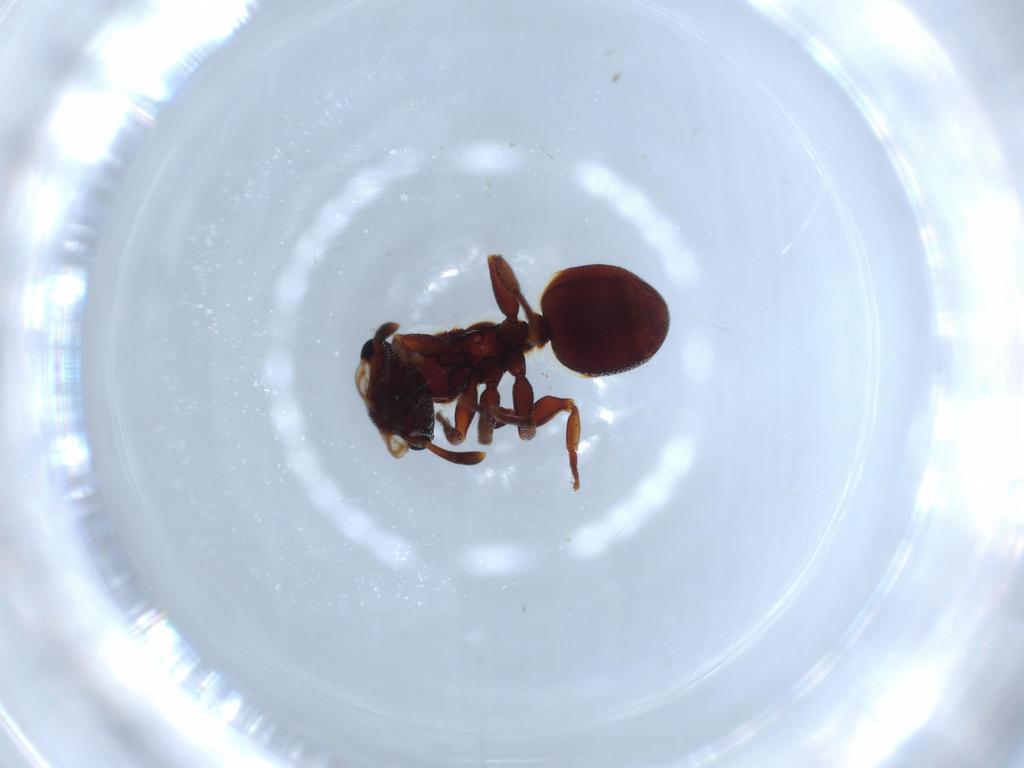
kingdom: Animalia
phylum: Arthropoda
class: Insecta
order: Hymenoptera
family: Formicidae
